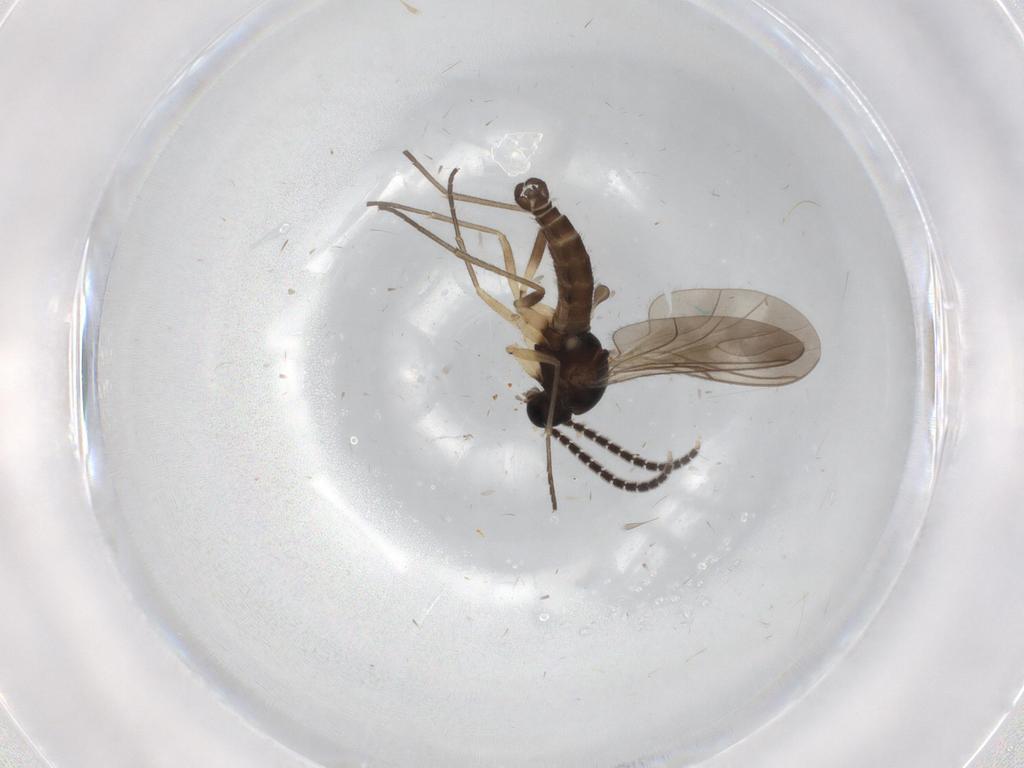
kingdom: Animalia
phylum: Arthropoda
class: Insecta
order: Diptera
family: Sciaridae
